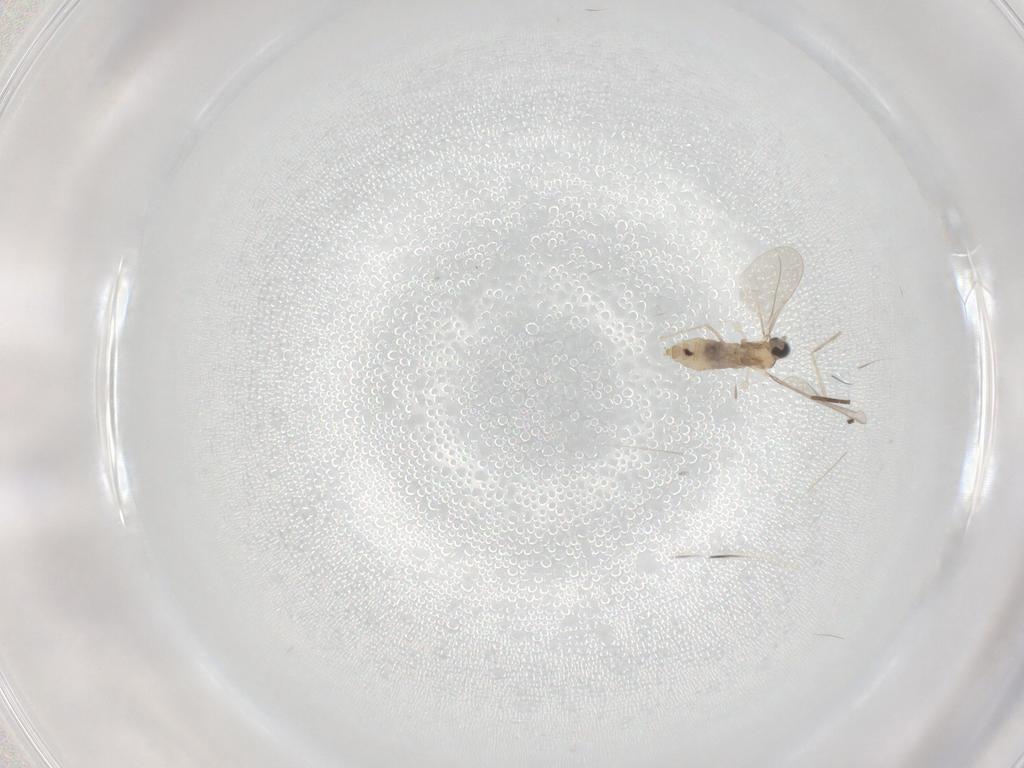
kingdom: Animalia
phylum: Arthropoda
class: Insecta
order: Diptera
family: Sciaridae
